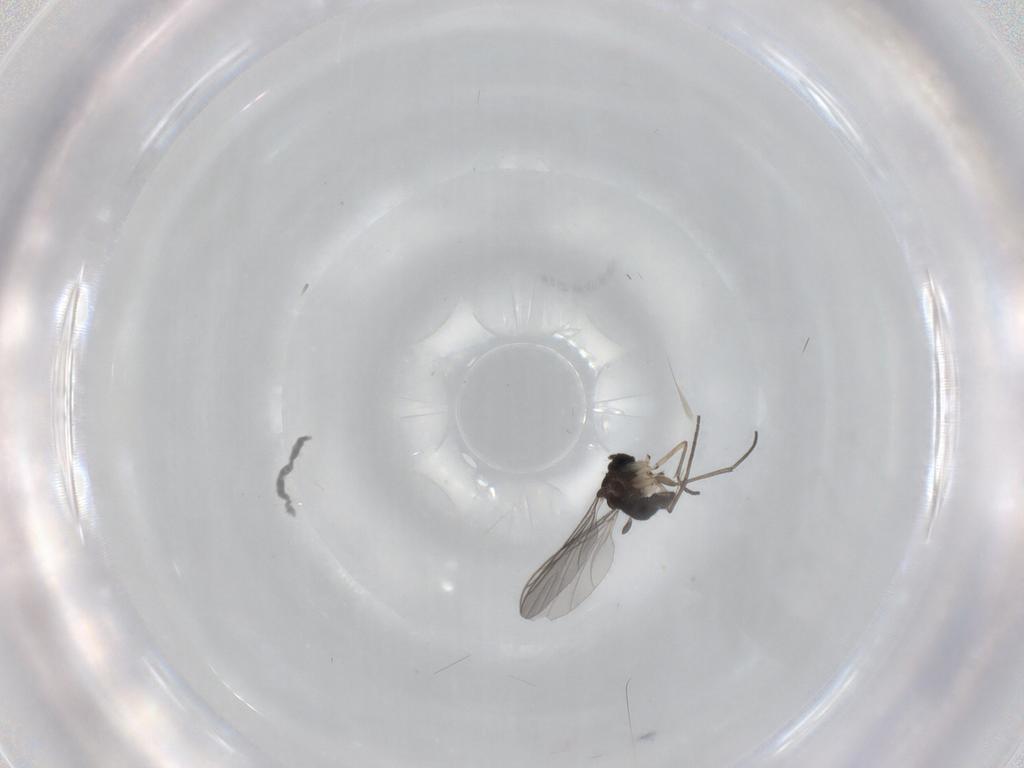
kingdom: Animalia
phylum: Arthropoda
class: Insecta
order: Diptera
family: Sciaridae
